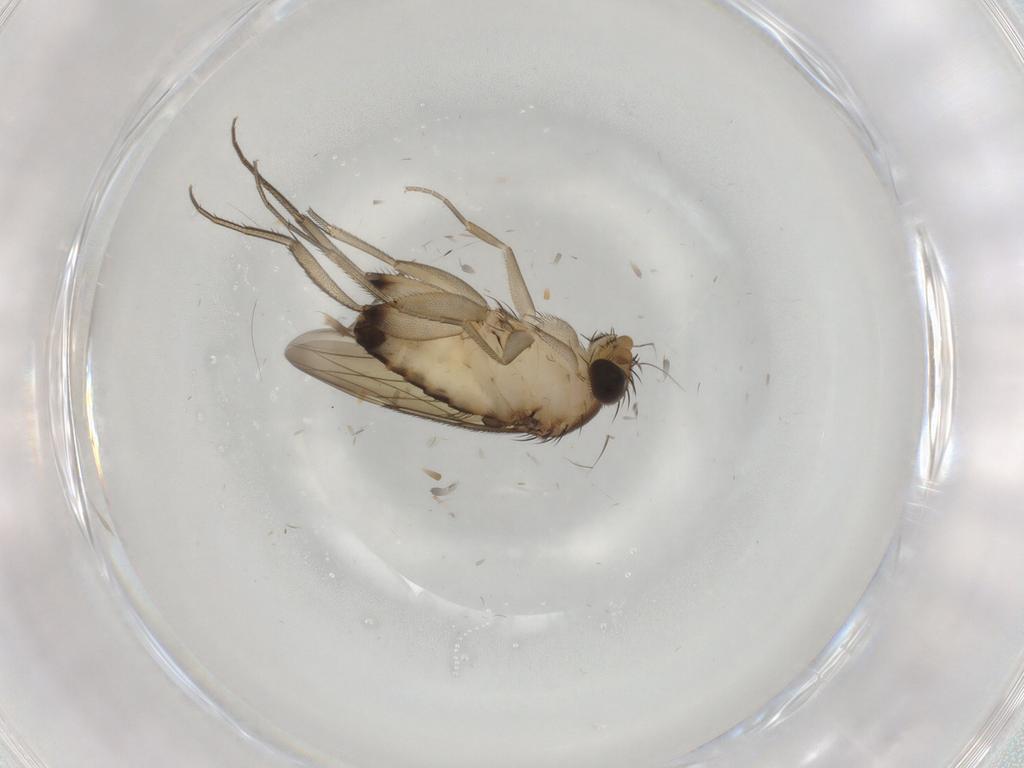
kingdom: Animalia
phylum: Arthropoda
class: Insecta
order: Diptera
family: Phoridae
